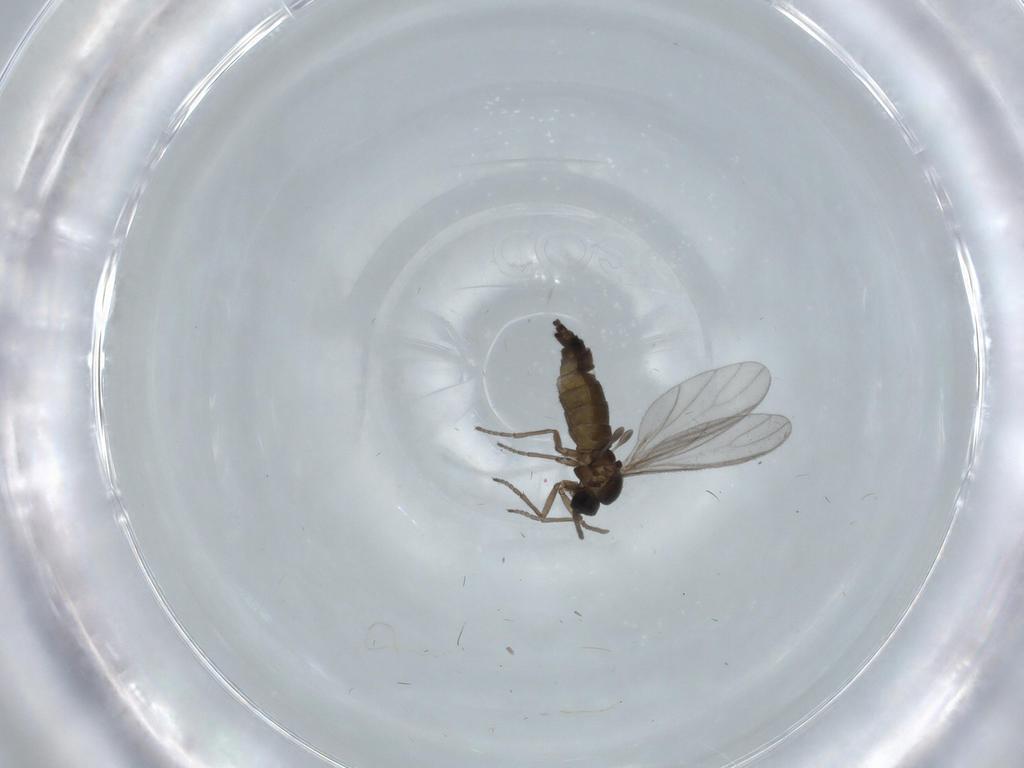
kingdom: Animalia
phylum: Arthropoda
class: Insecta
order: Diptera
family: Sciaridae
